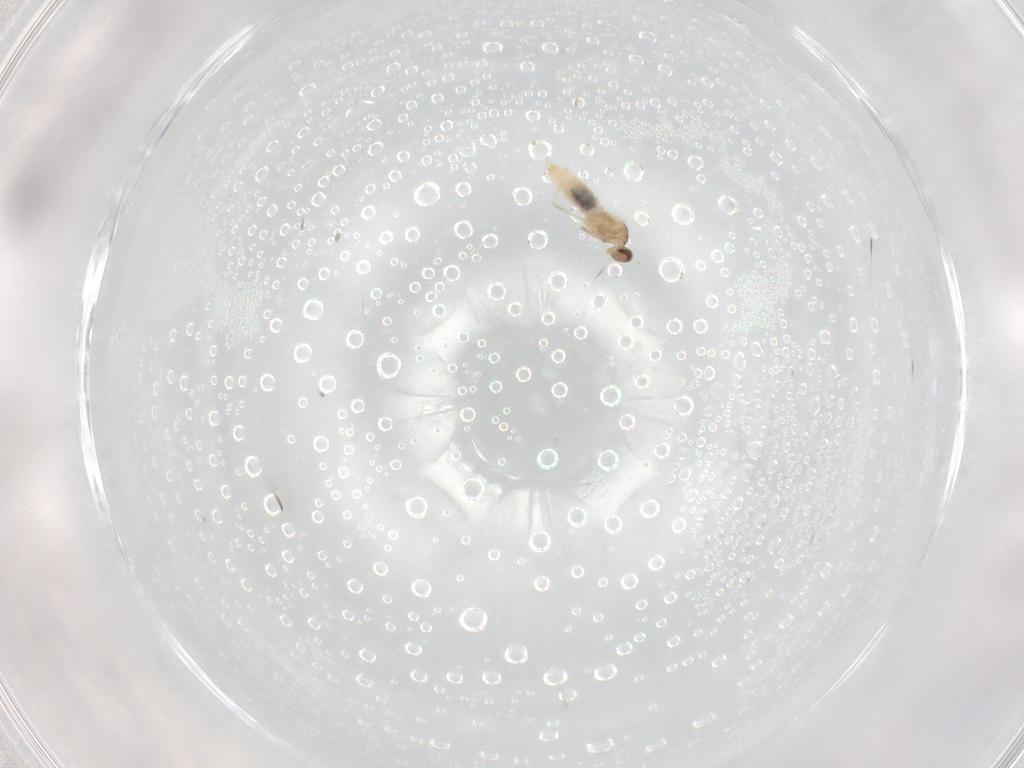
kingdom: Animalia
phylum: Arthropoda
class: Insecta
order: Diptera
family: Cecidomyiidae
